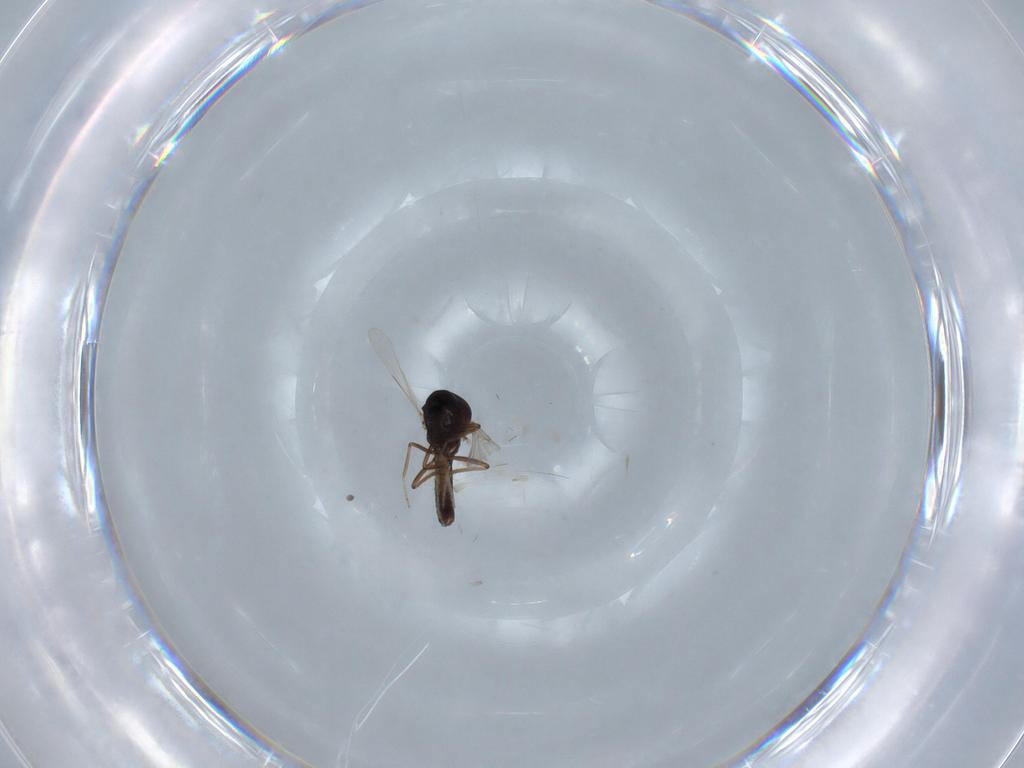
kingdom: Animalia
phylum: Arthropoda
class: Insecta
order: Diptera
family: Ceratopogonidae
